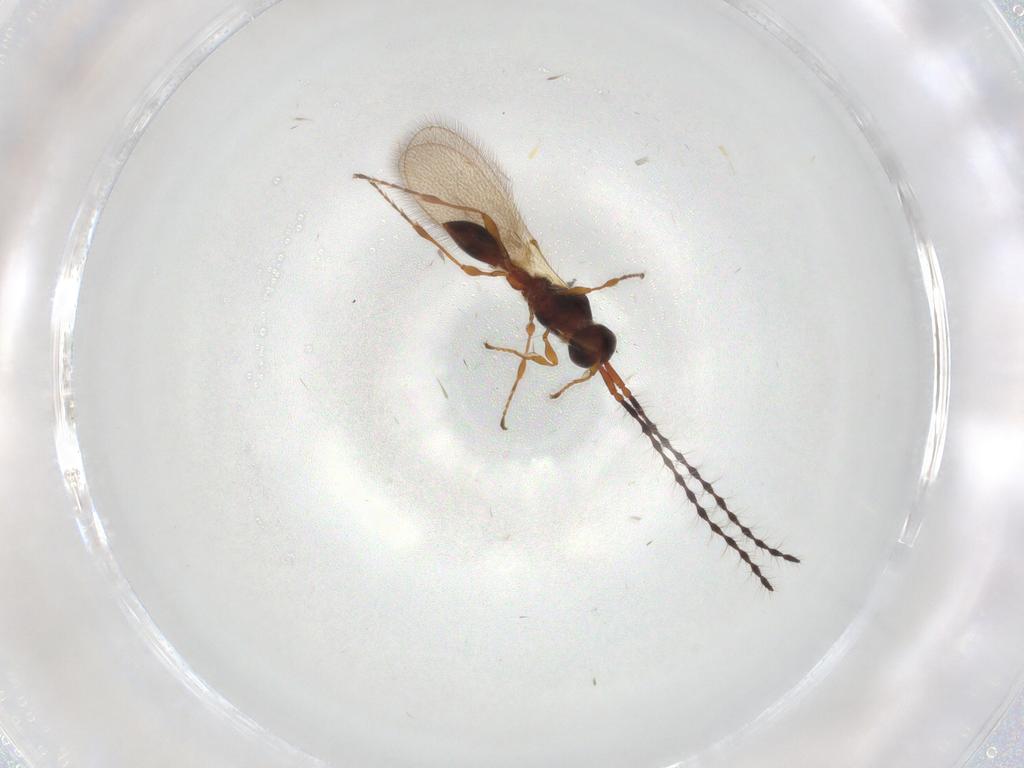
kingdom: Animalia
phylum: Arthropoda
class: Insecta
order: Hymenoptera
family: Diapriidae
